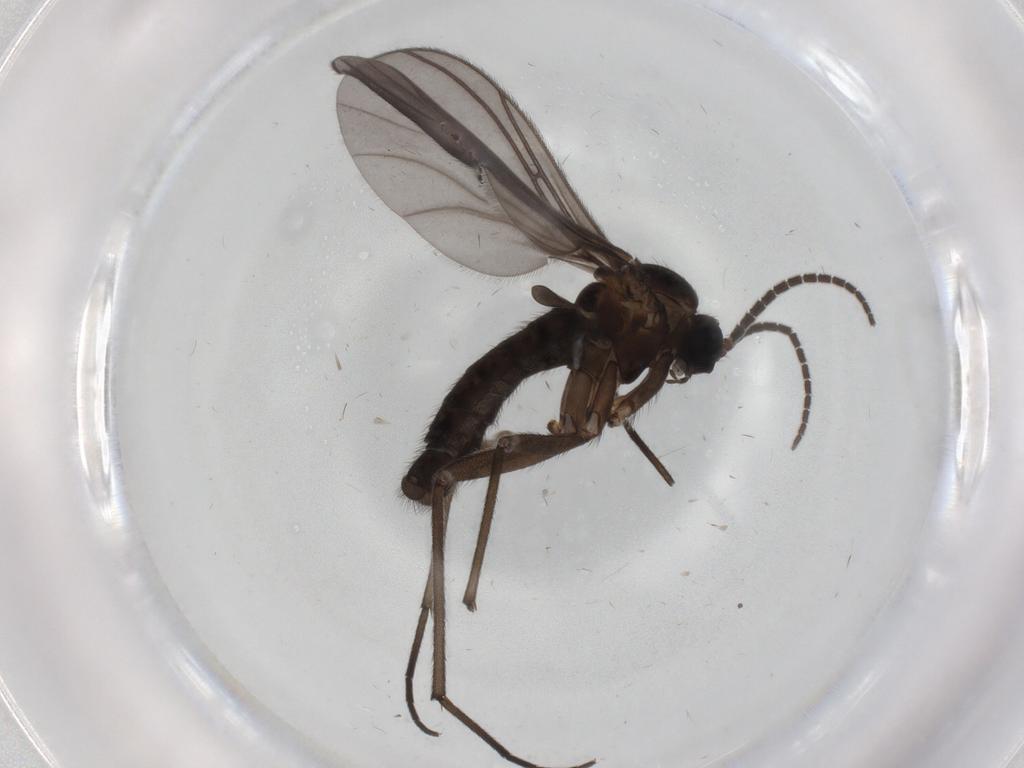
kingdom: Animalia
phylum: Arthropoda
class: Insecta
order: Diptera
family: Sciaridae
